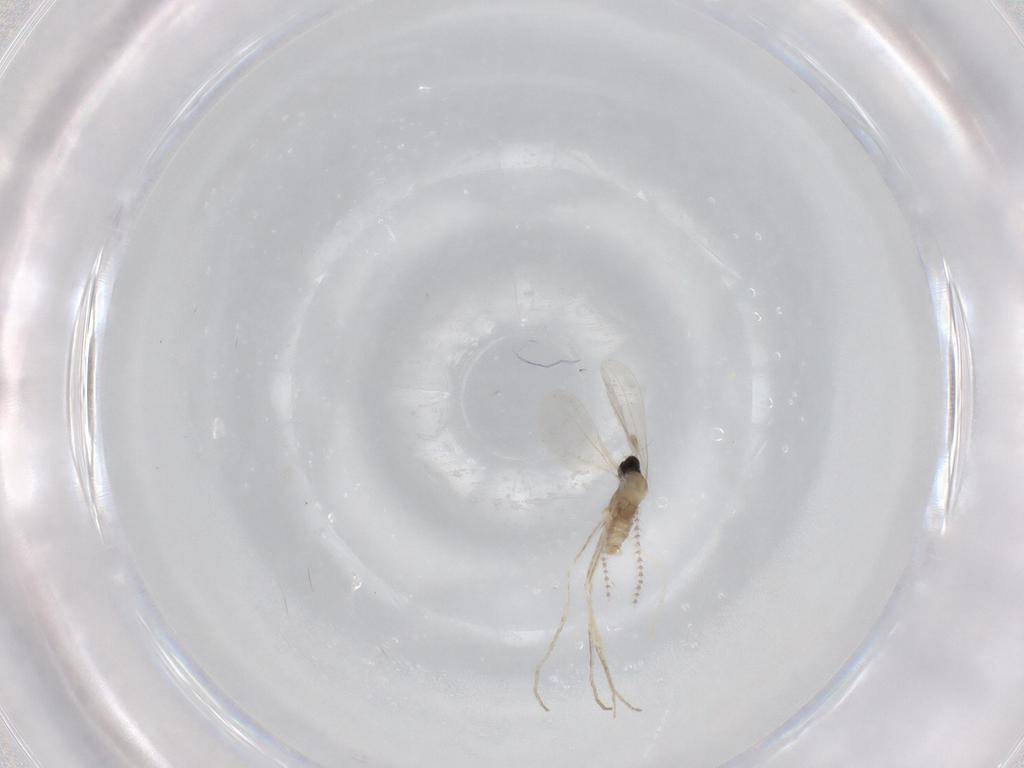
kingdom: Animalia
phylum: Arthropoda
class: Insecta
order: Diptera
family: Cecidomyiidae
